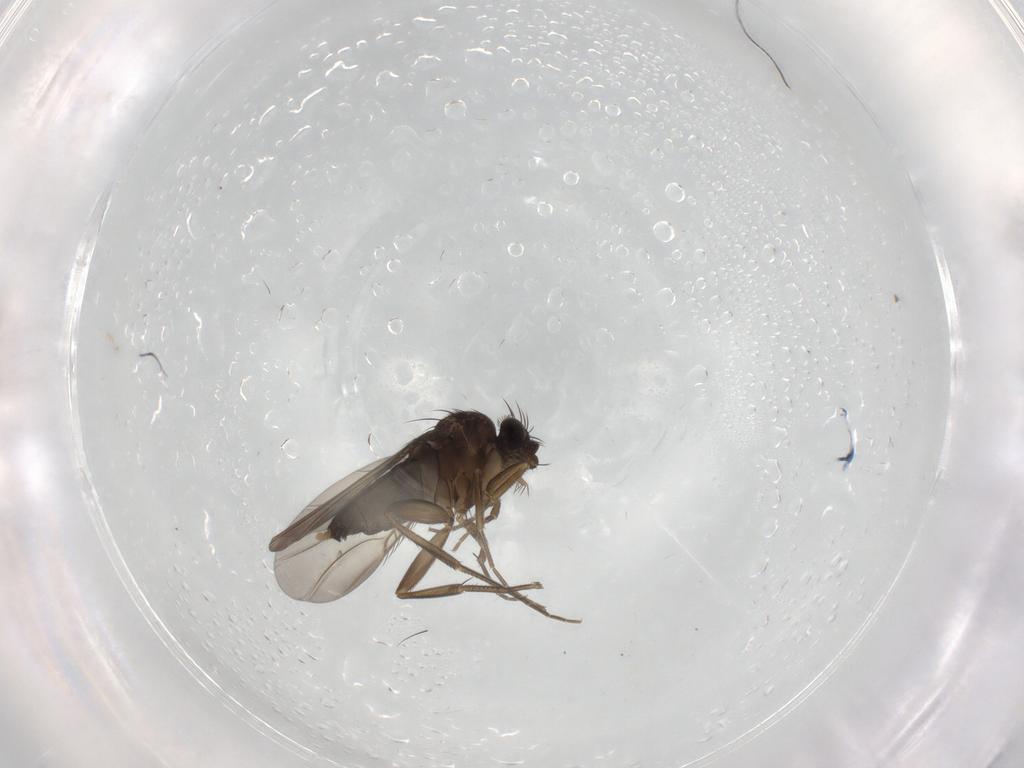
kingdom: Animalia
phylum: Arthropoda
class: Insecta
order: Diptera
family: Phoridae
